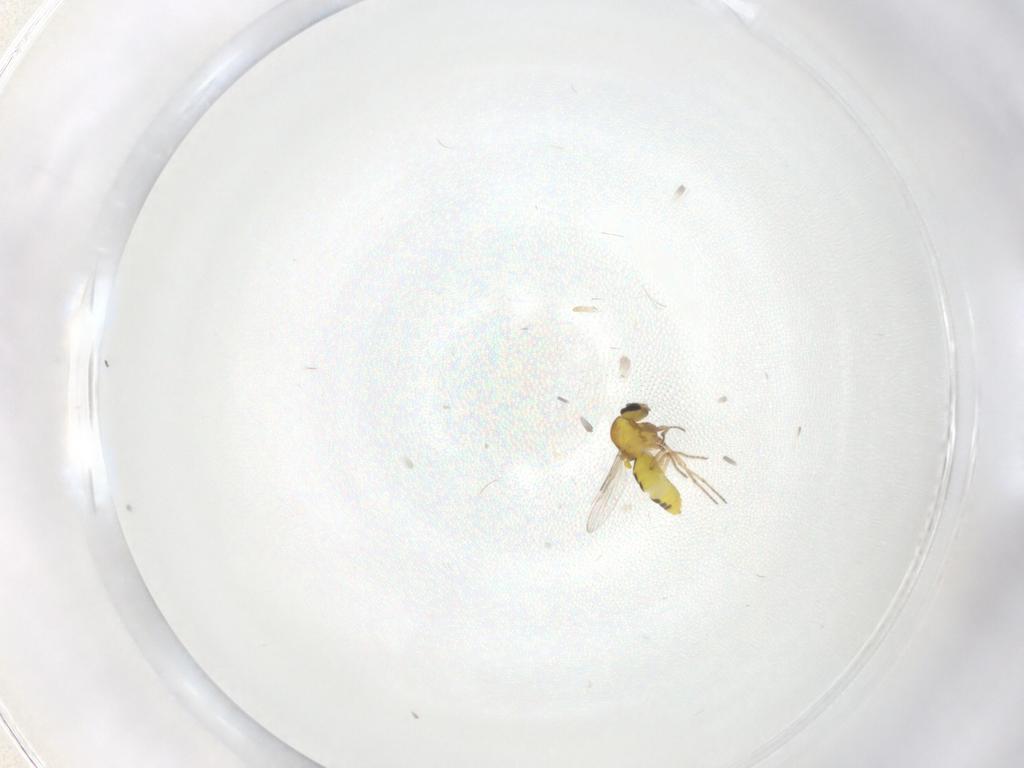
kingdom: Animalia
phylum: Arthropoda
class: Insecta
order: Diptera
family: Ceratopogonidae
